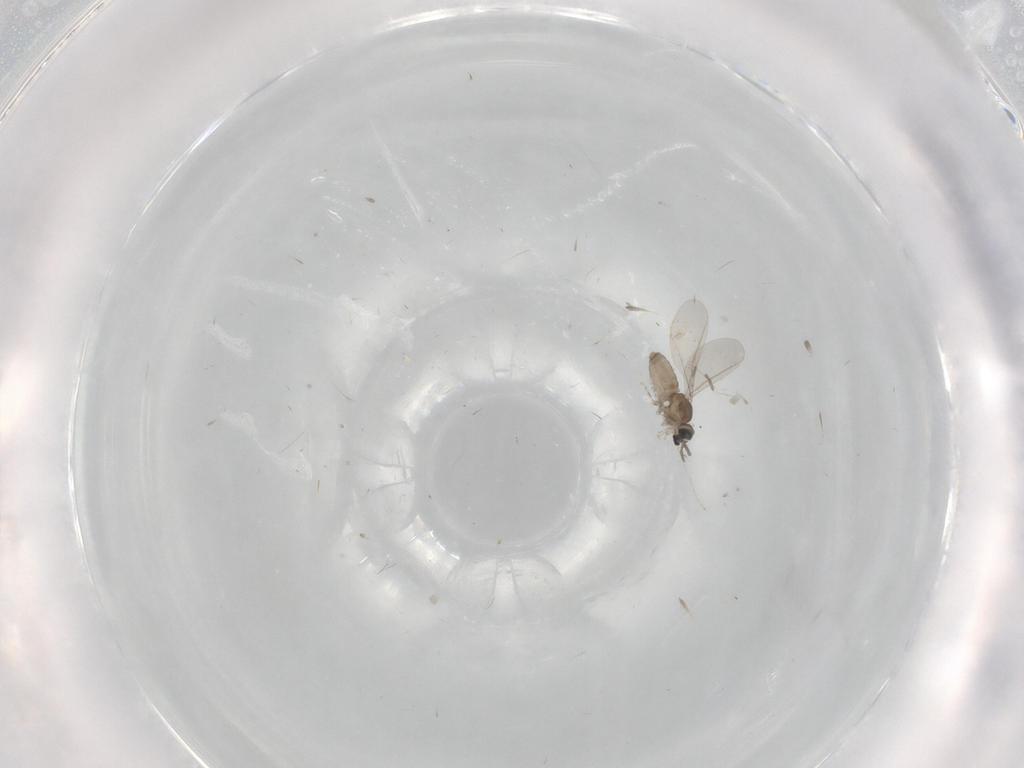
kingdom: Animalia
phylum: Arthropoda
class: Insecta
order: Diptera
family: Cecidomyiidae
